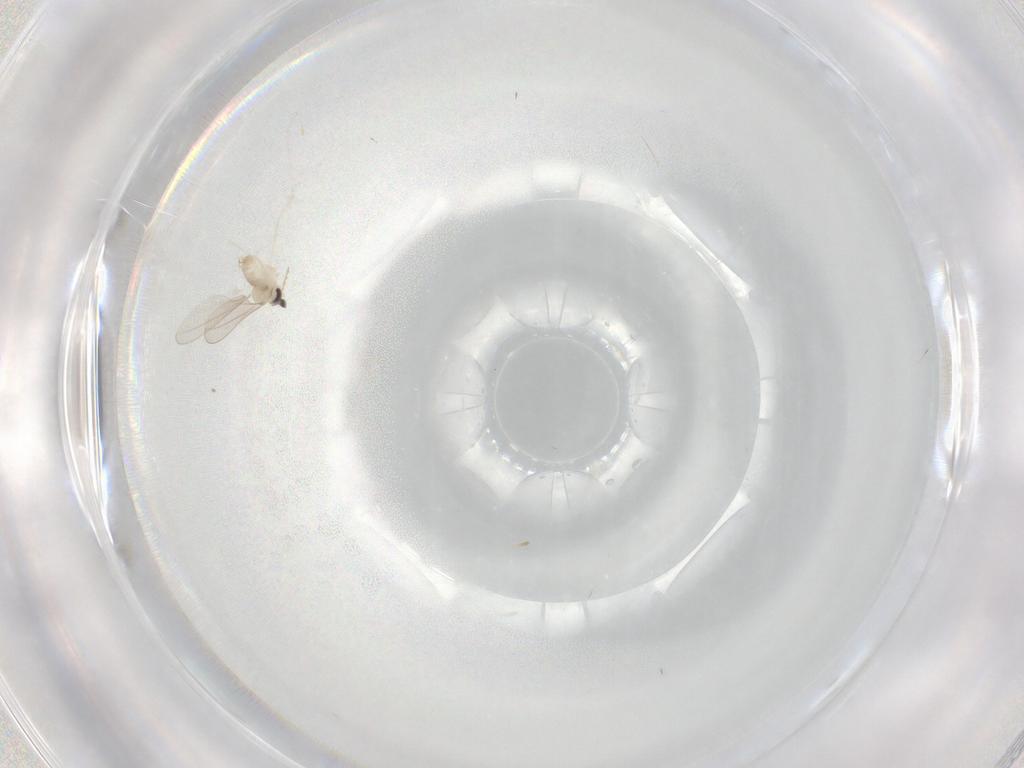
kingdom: Animalia
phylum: Arthropoda
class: Insecta
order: Diptera
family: Cecidomyiidae
